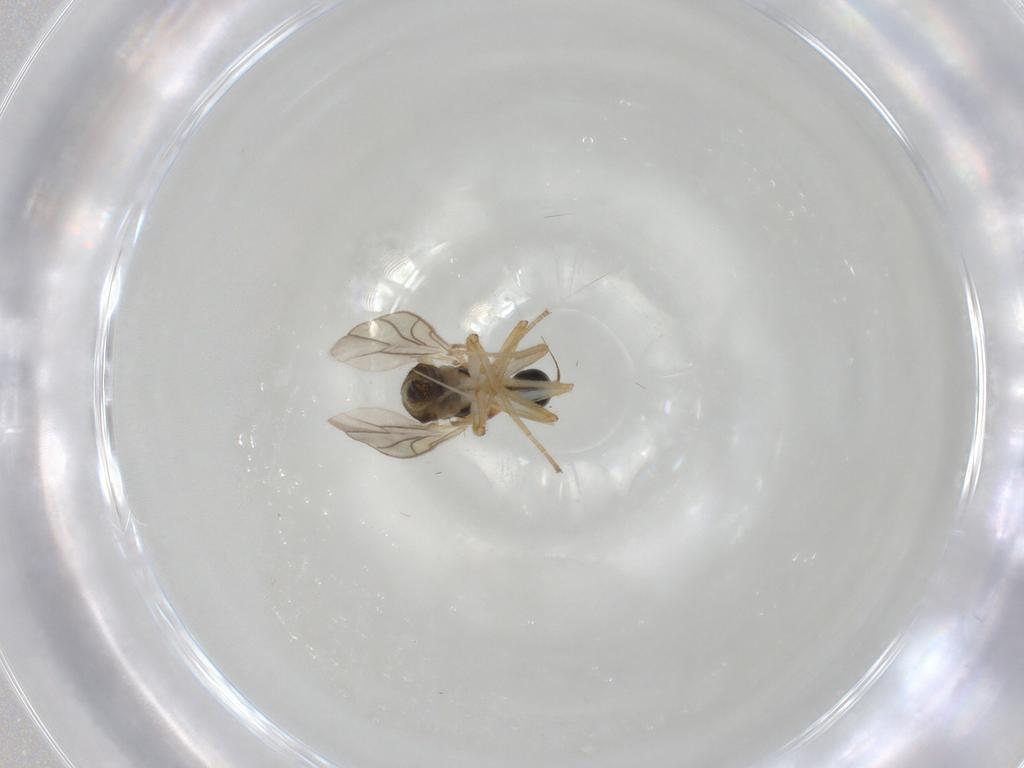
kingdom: Animalia
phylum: Arthropoda
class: Insecta
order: Diptera
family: Hybotidae
